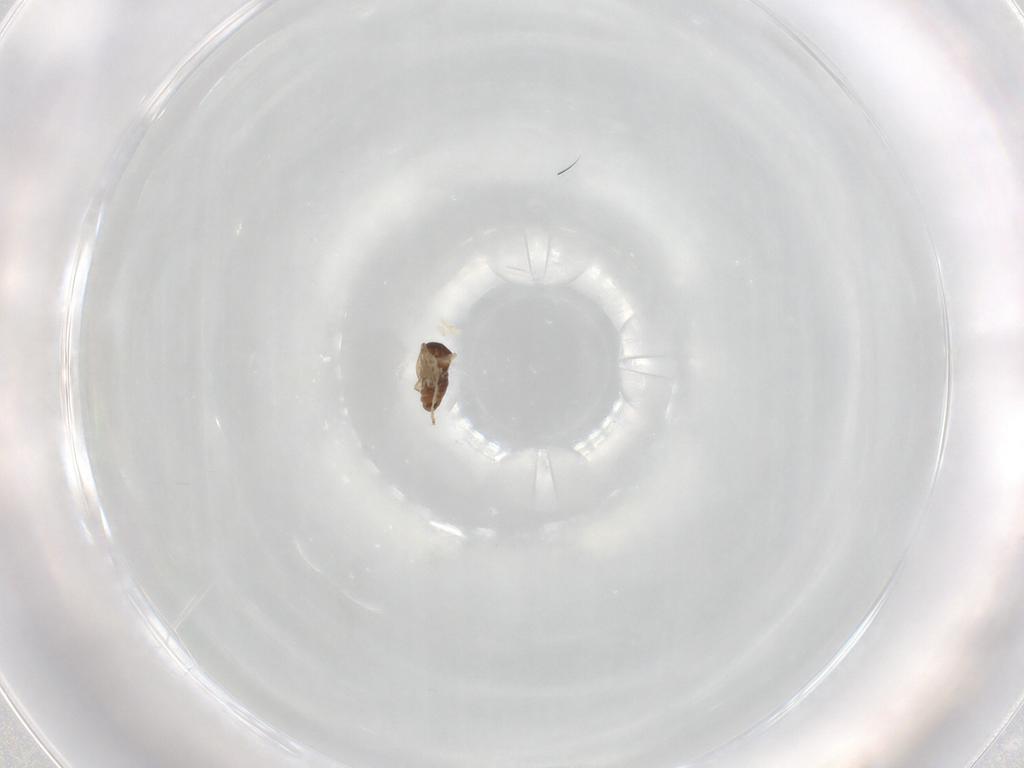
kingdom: Animalia
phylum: Arthropoda
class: Insecta
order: Diptera
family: Cecidomyiidae
